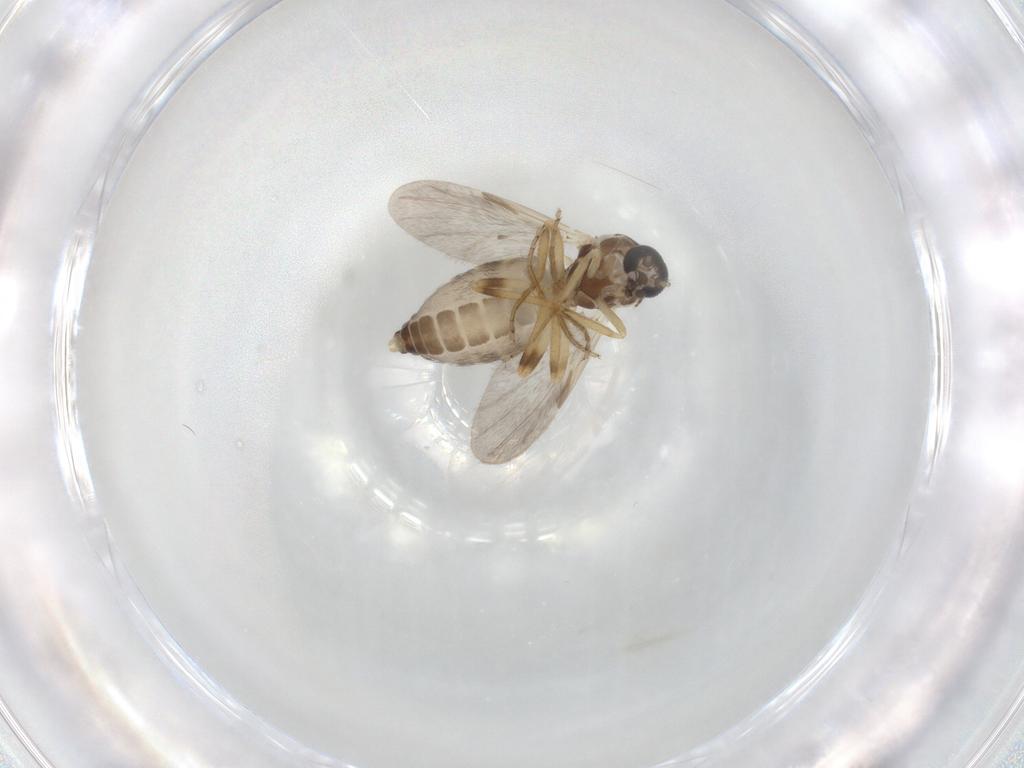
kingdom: Animalia
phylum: Arthropoda
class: Insecta
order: Diptera
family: Ceratopogonidae
